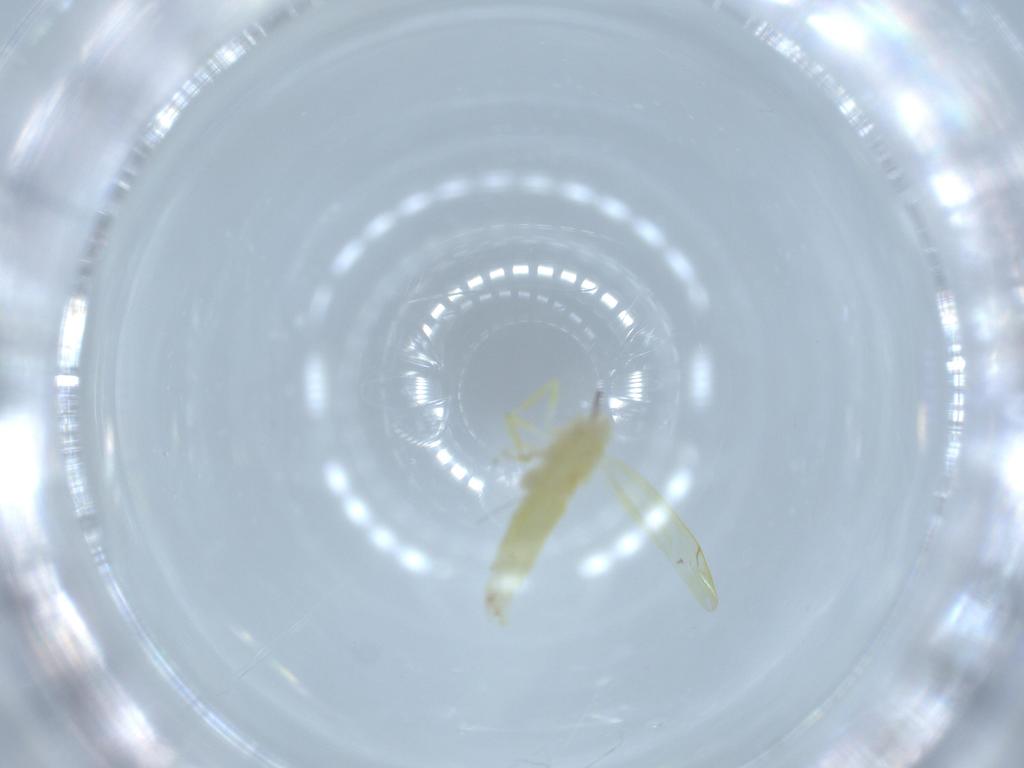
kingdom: Animalia
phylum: Arthropoda
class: Insecta
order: Hemiptera
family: Cicadellidae
